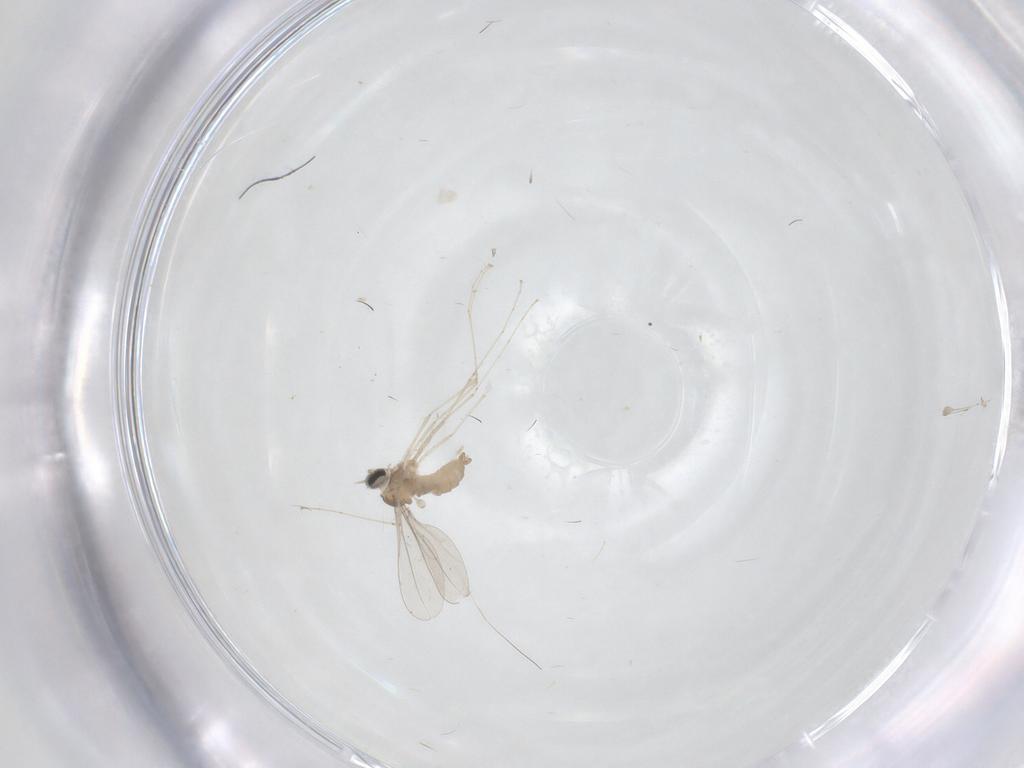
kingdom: Animalia
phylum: Arthropoda
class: Insecta
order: Diptera
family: Limoniidae
